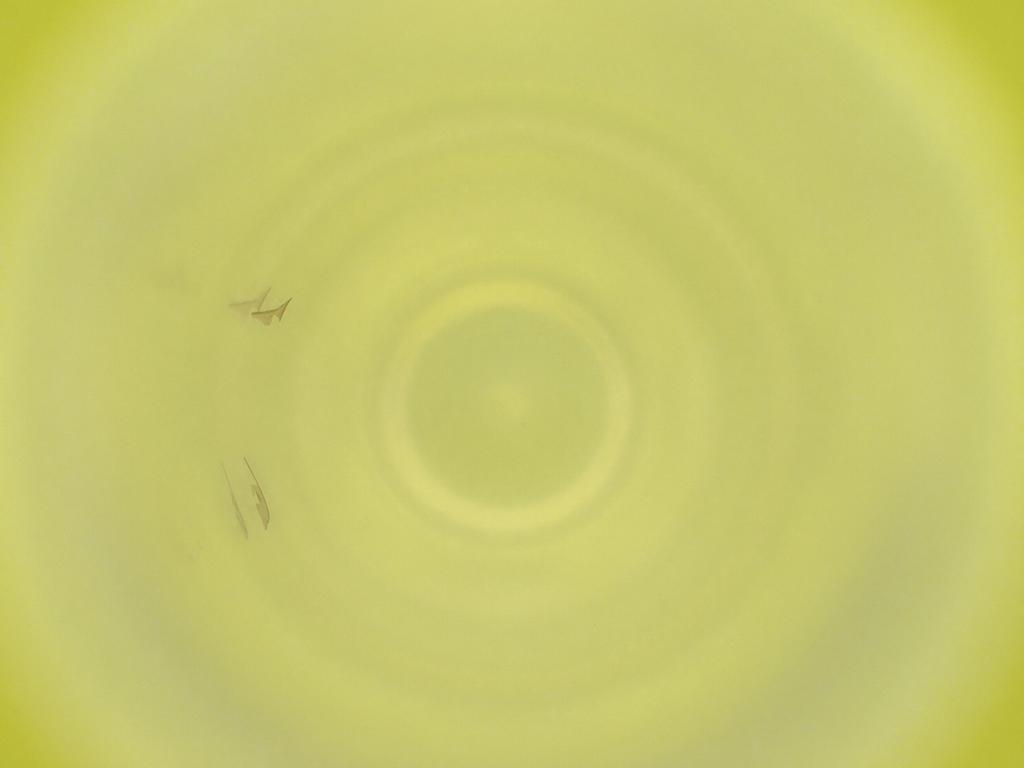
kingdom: Animalia
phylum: Arthropoda
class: Insecta
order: Diptera
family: Cecidomyiidae
